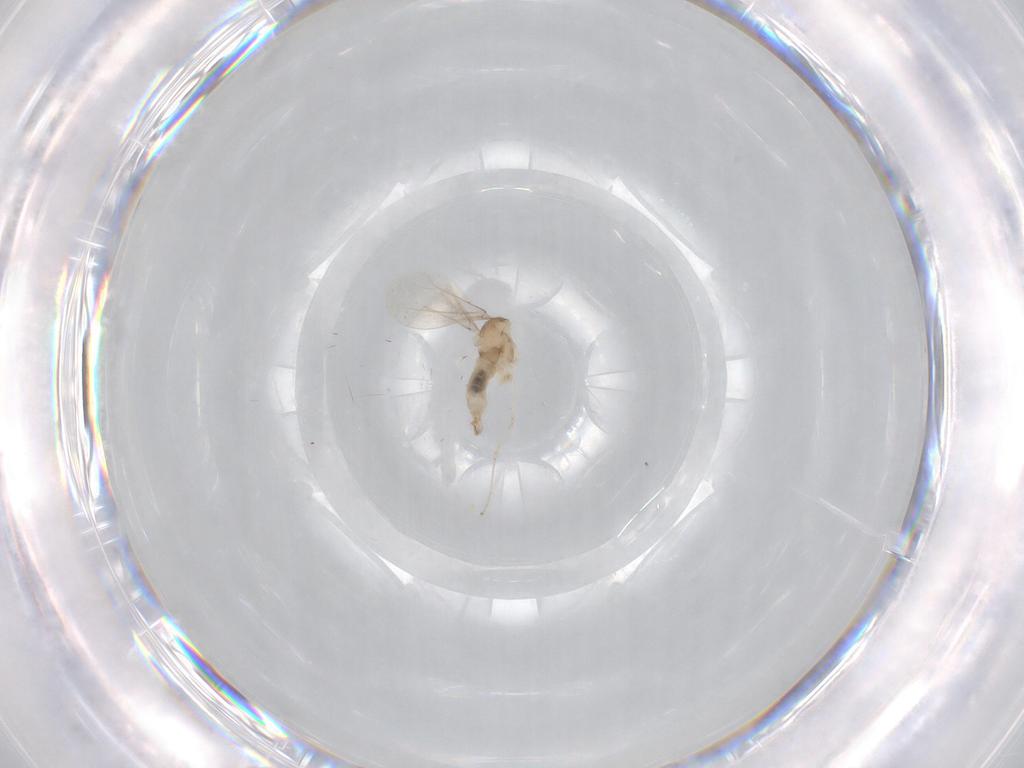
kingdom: Animalia
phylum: Arthropoda
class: Insecta
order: Diptera
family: Cecidomyiidae
